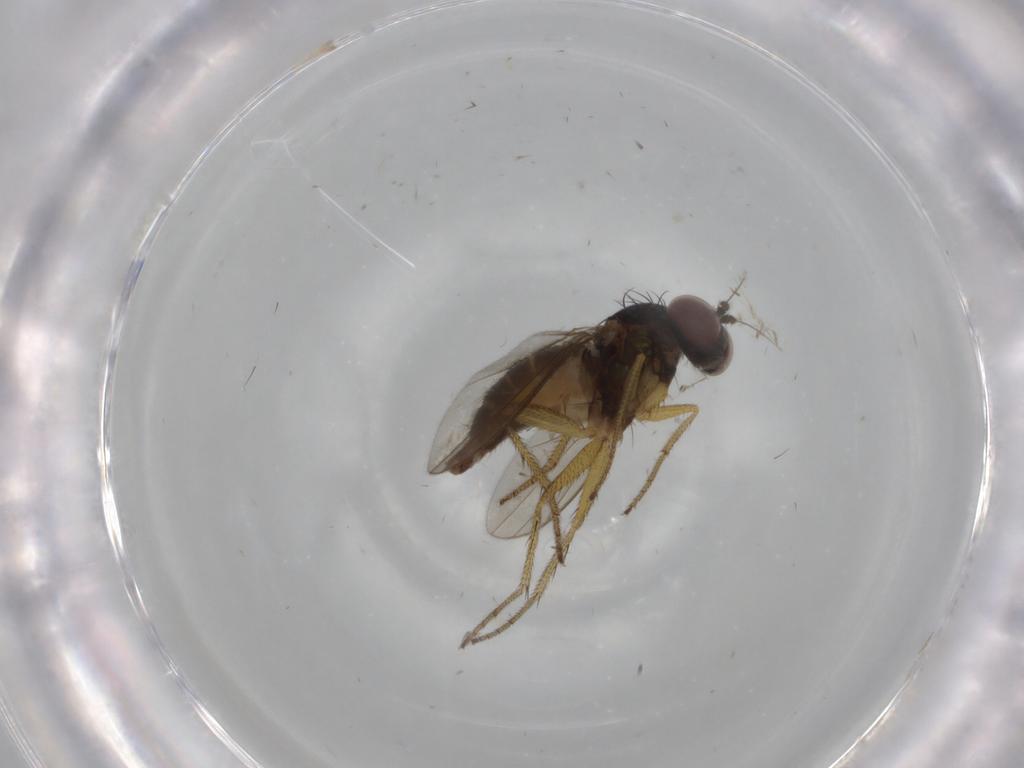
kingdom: Animalia
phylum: Arthropoda
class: Insecta
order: Diptera
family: Dolichopodidae
